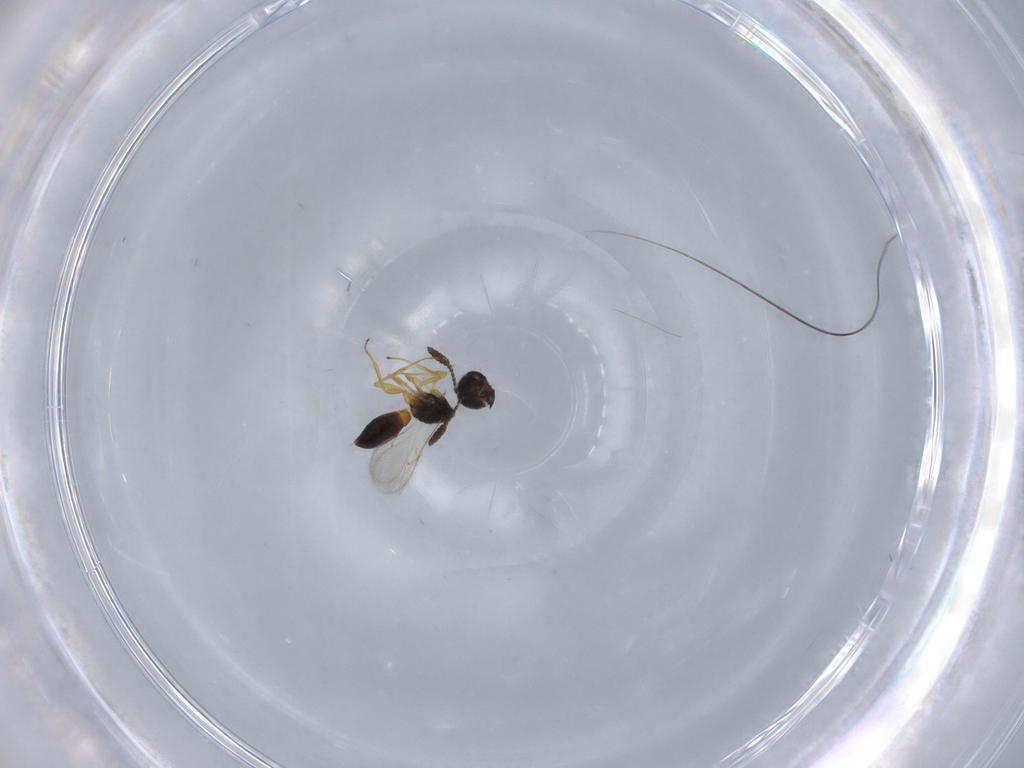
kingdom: Animalia
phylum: Arthropoda
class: Insecta
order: Hymenoptera
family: Scelionidae
